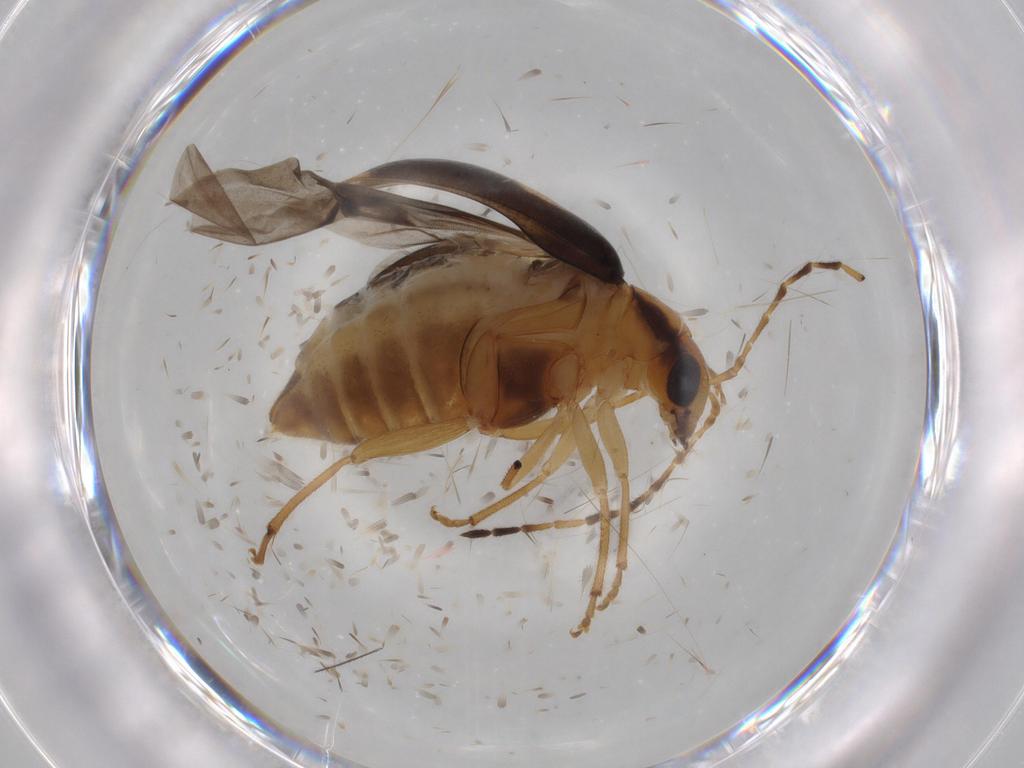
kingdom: Animalia
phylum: Arthropoda
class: Insecta
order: Coleoptera
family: Chrysomelidae
